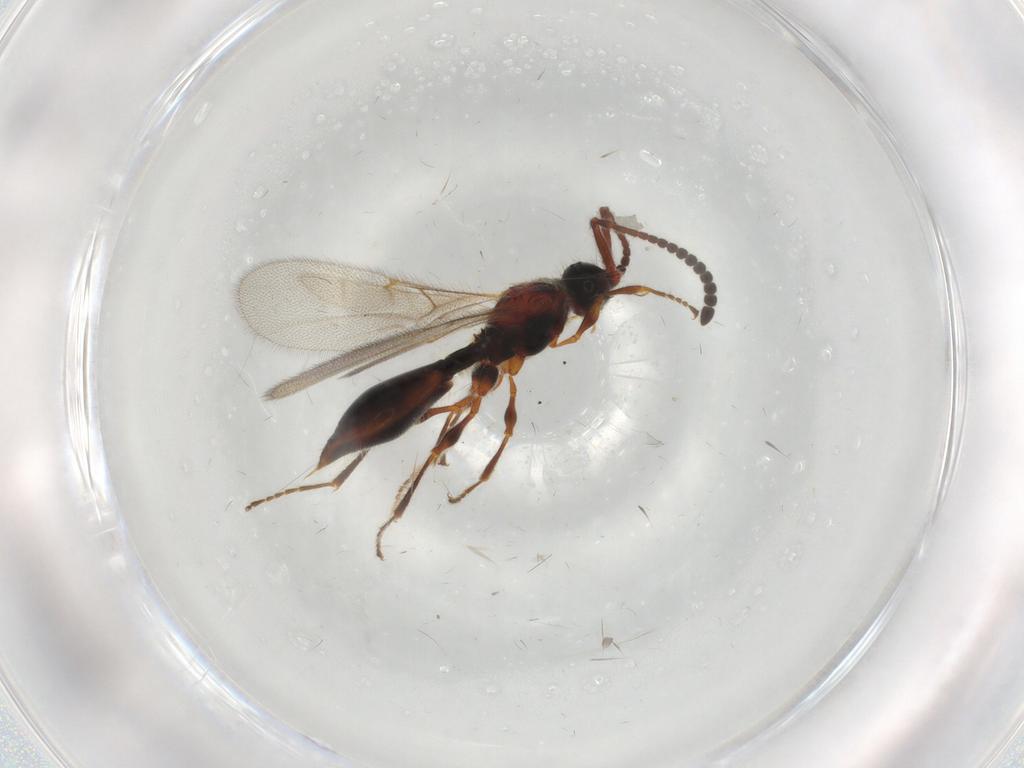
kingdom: Animalia
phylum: Arthropoda
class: Insecta
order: Hymenoptera
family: Diapriidae
